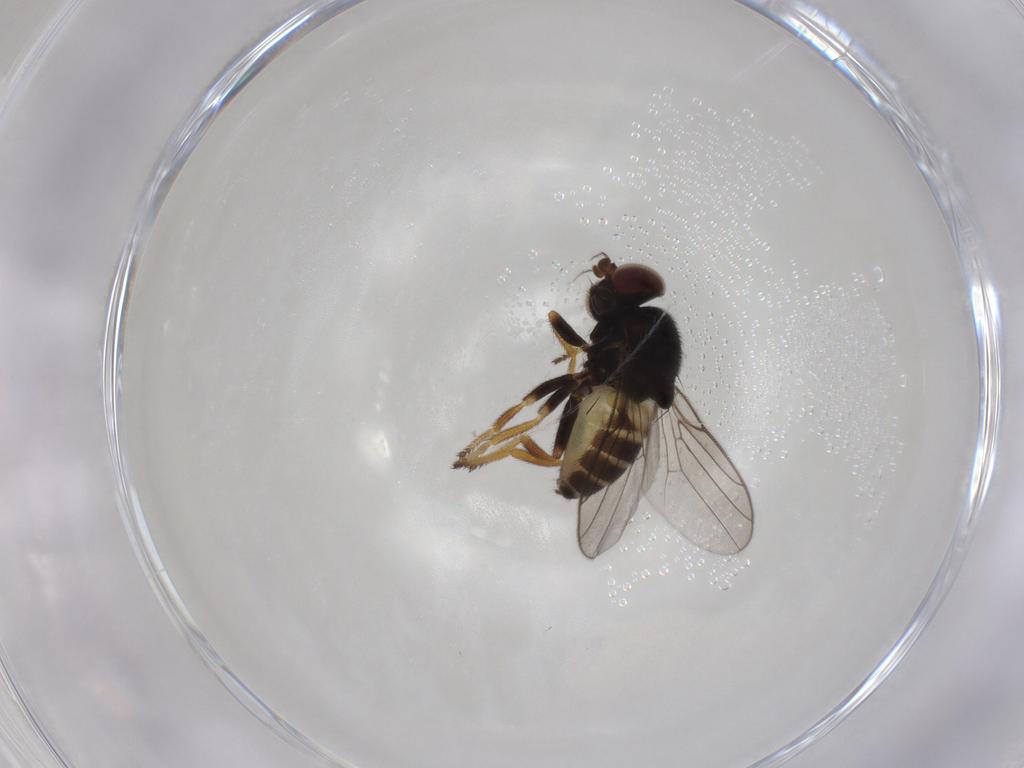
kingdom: Animalia
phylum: Arthropoda
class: Insecta
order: Diptera
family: Chloropidae
